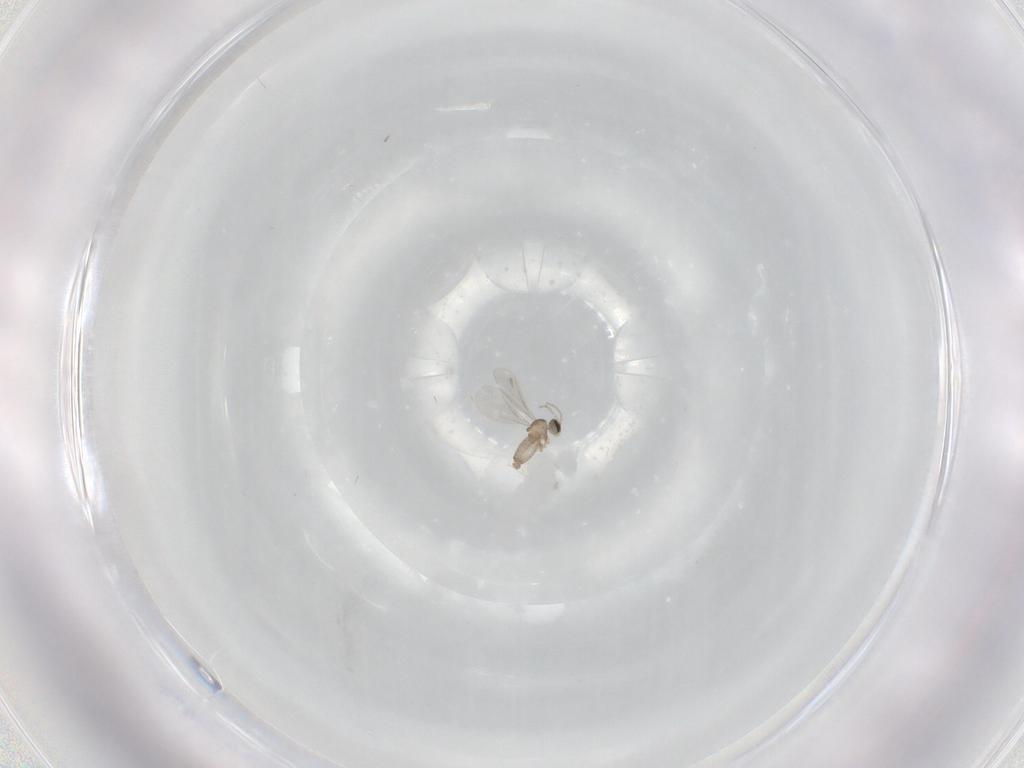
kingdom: Animalia
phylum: Arthropoda
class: Insecta
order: Diptera
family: Cecidomyiidae
